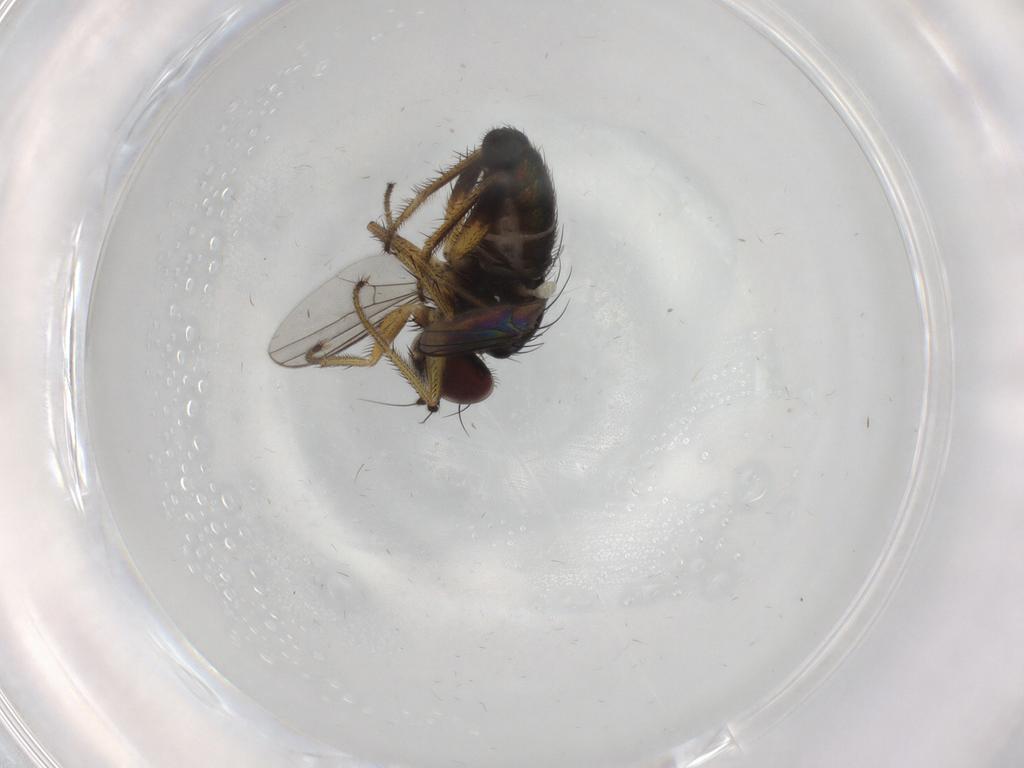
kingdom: Animalia
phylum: Arthropoda
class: Insecta
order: Diptera
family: Dolichopodidae
